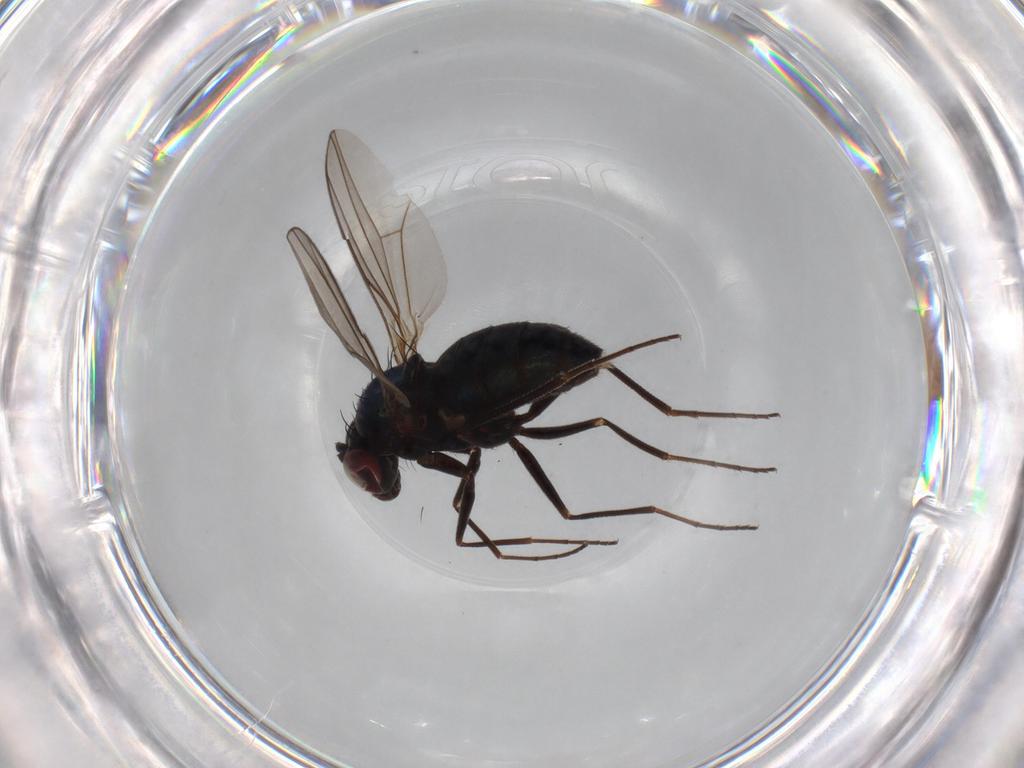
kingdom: Animalia
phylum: Arthropoda
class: Insecta
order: Diptera
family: Dolichopodidae
